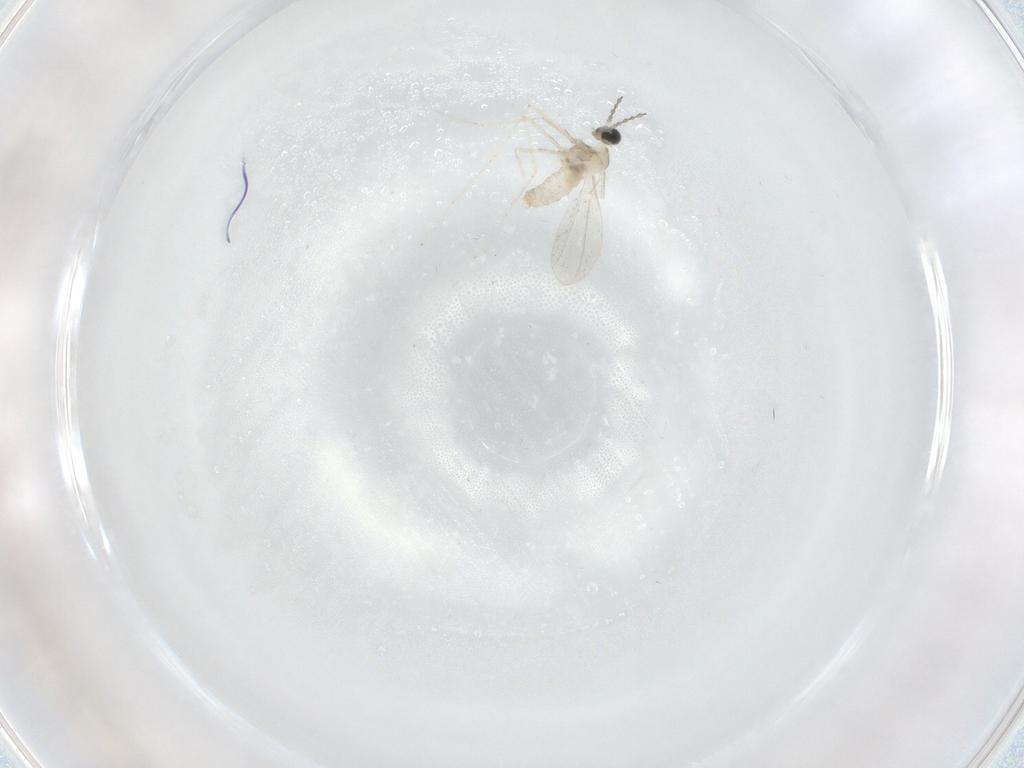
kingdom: Animalia
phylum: Arthropoda
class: Insecta
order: Diptera
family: Cecidomyiidae
